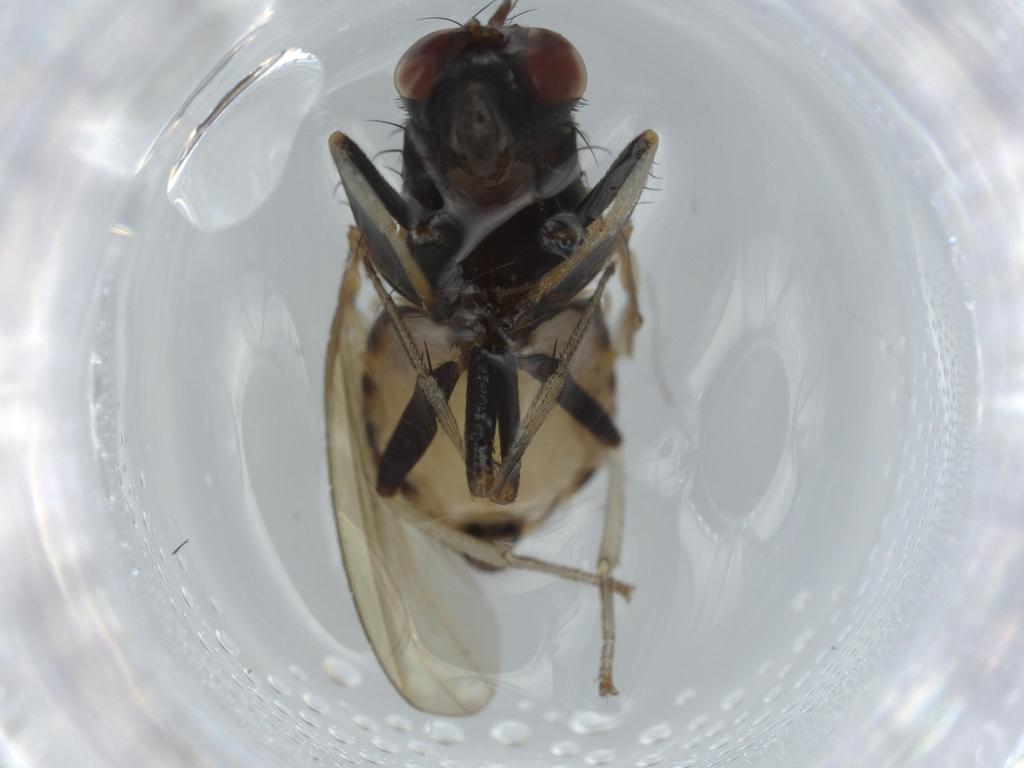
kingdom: Animalia
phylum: Arthropoda
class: Insecta
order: Diptera
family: Cecidomyiidae
